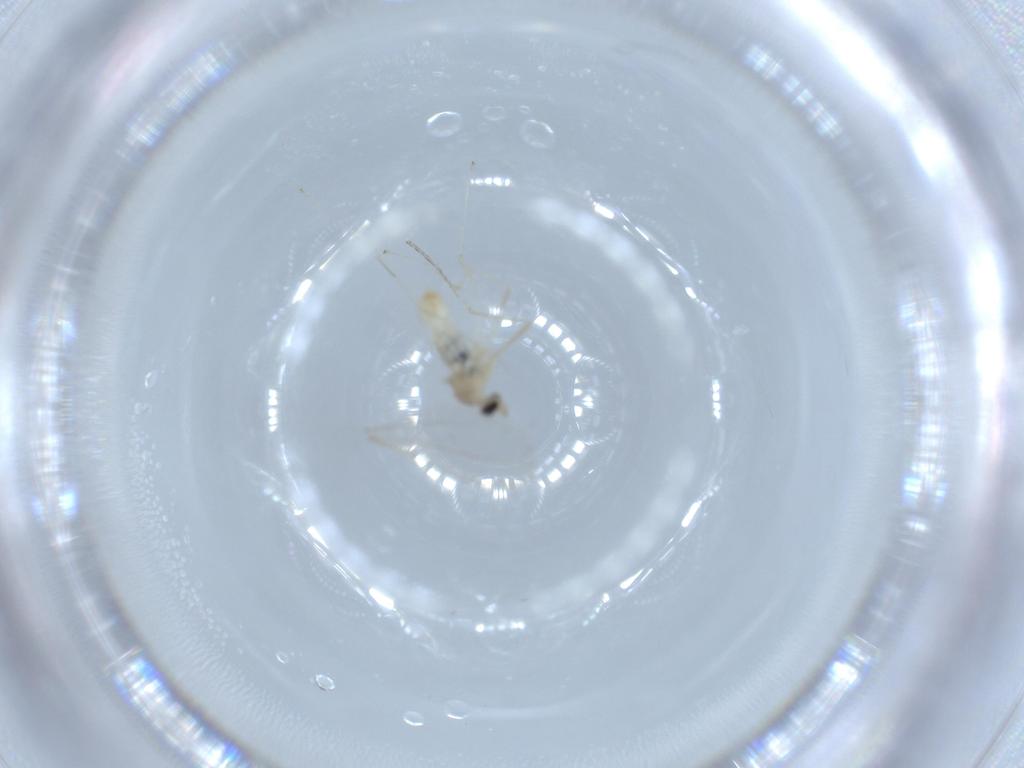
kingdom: Animalia
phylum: Arthropoda
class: Insecta
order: Diptera
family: Cecidomyiidae
